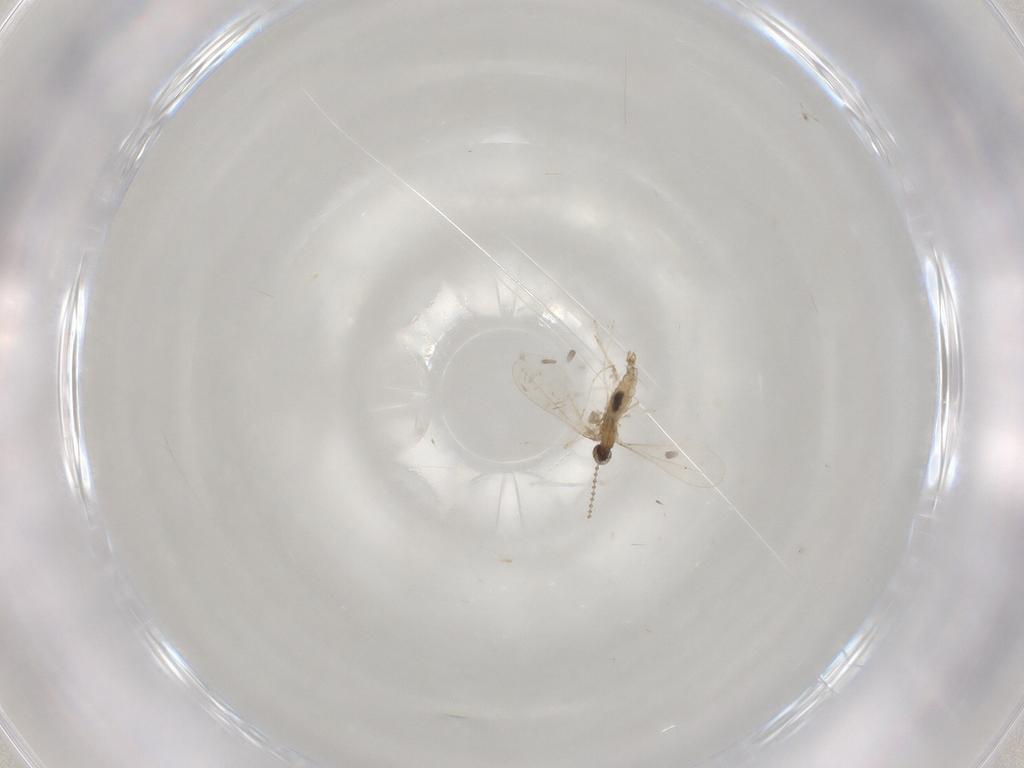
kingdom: Animalia
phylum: Arthropoda
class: Insecta
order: Diptera
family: Cecidomyiidae
